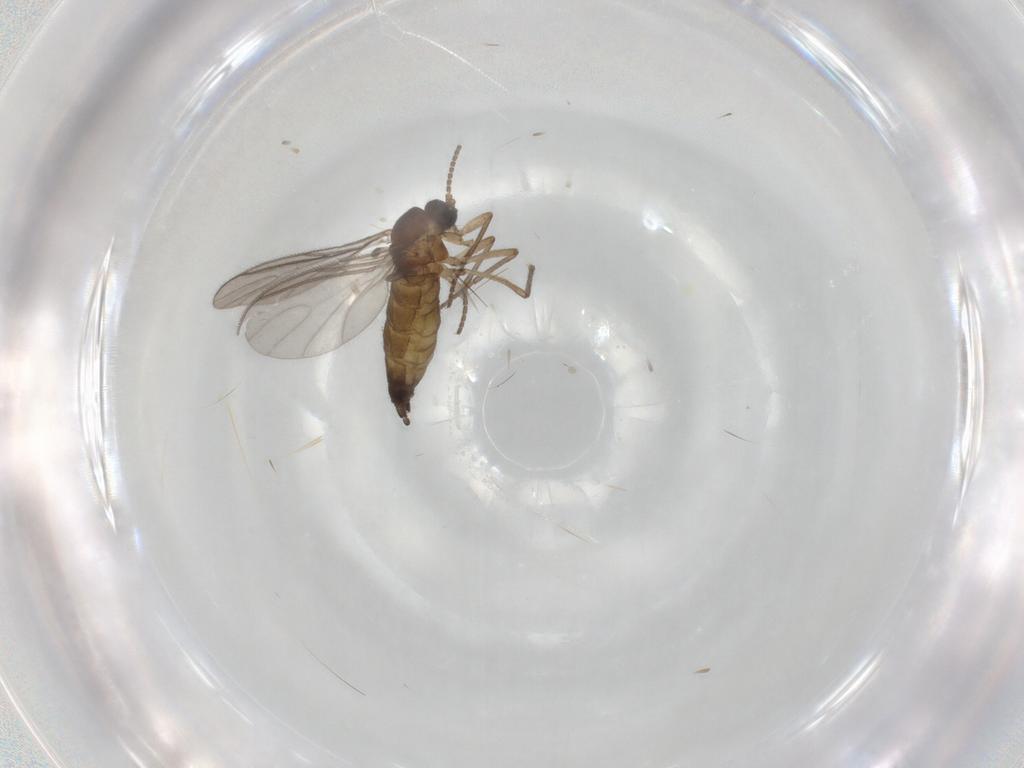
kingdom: Animalia
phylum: Arthropoda
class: Insecta
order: Diptera
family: Sciaridae
